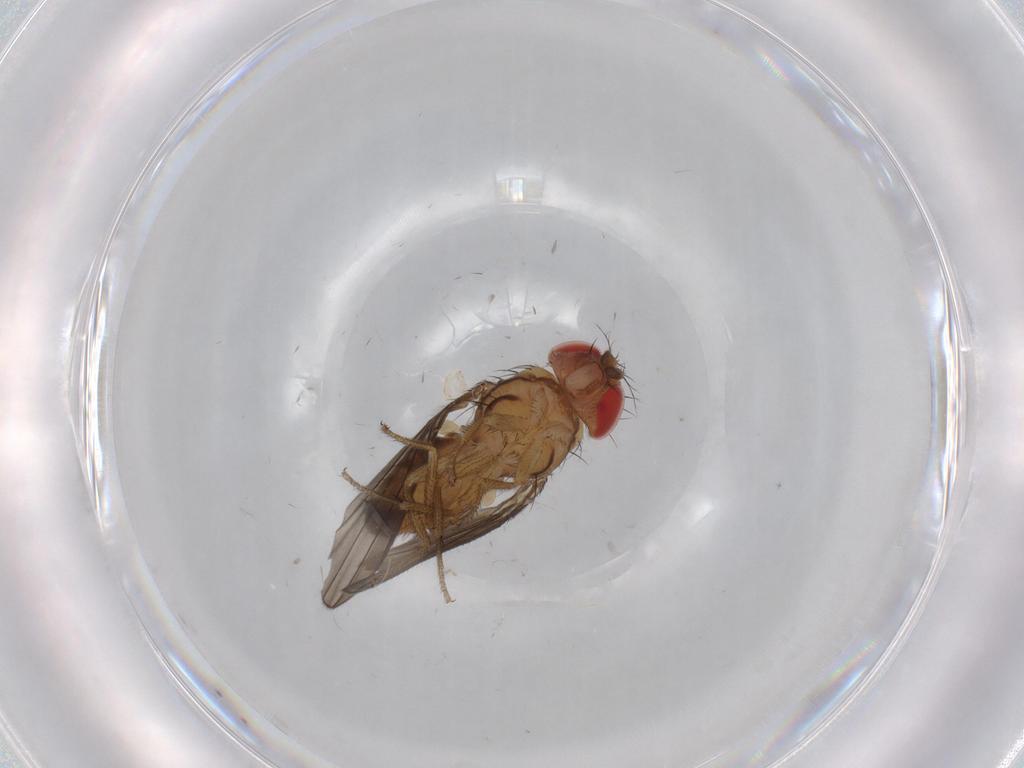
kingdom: Animalia
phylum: Arthropoda
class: Insecta
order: Diptera
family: Drosophilidae
